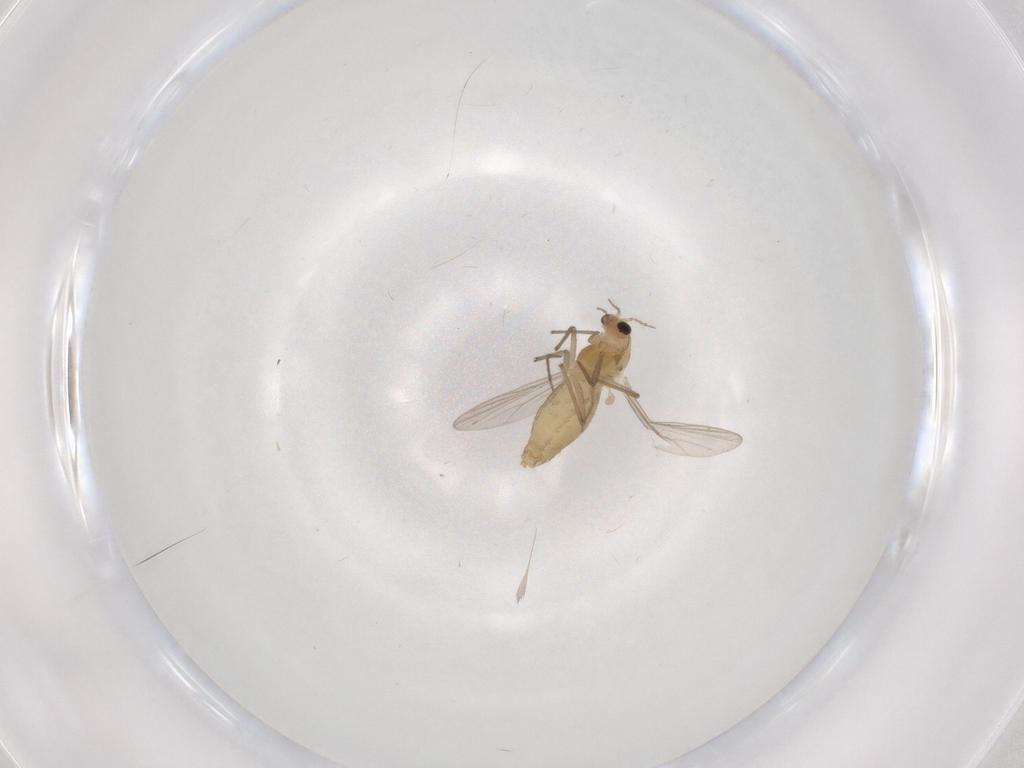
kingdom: Animalia
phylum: Arthropoda
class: Insecta
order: Diptera
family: Chironomidae
